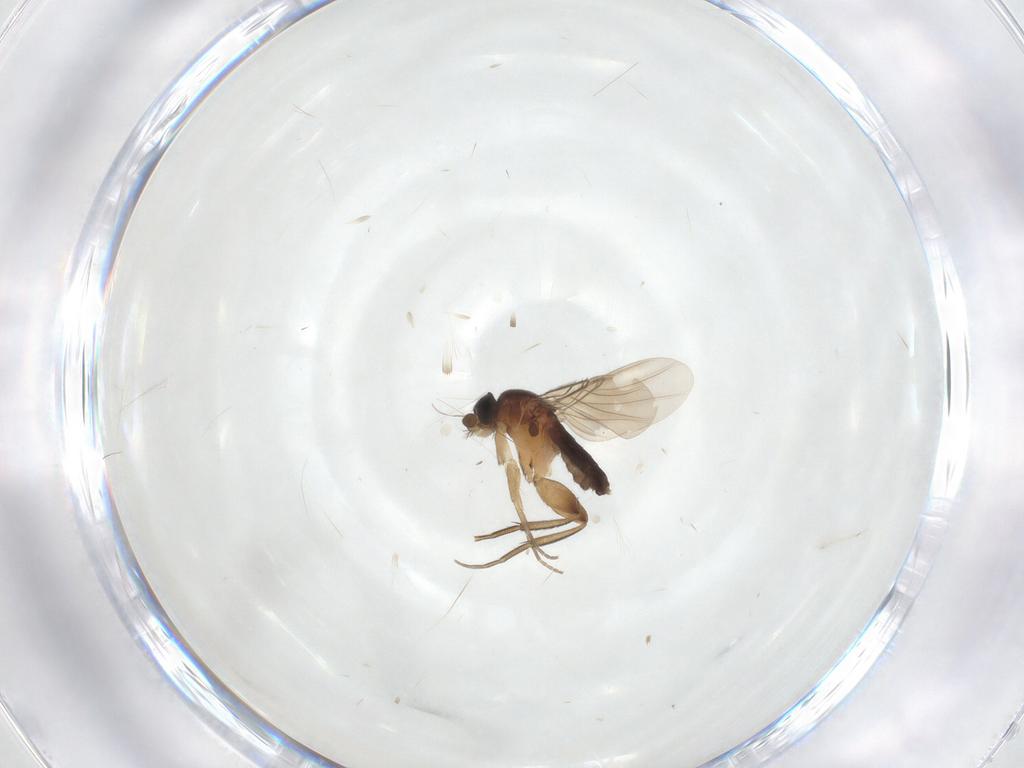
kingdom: Animalia
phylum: Arthropoda
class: Insecta
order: Diptera
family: Phoridae
